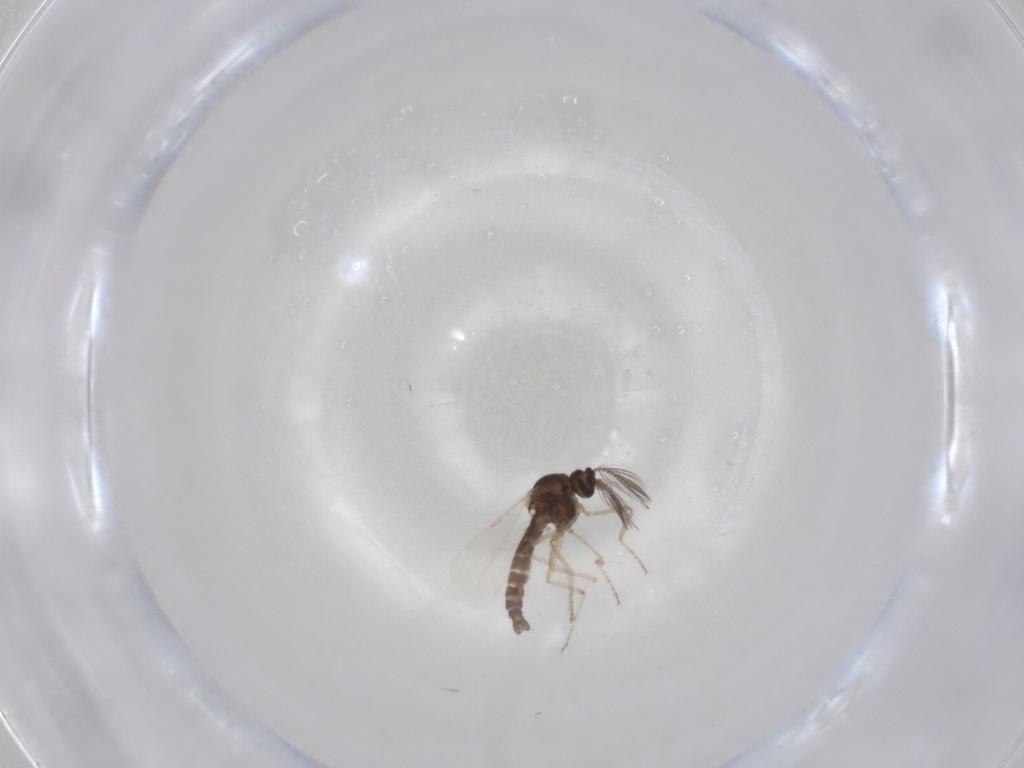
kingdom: Animalia
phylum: Arthropoda
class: Insecta
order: Diptera
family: Ceratopogonidae
